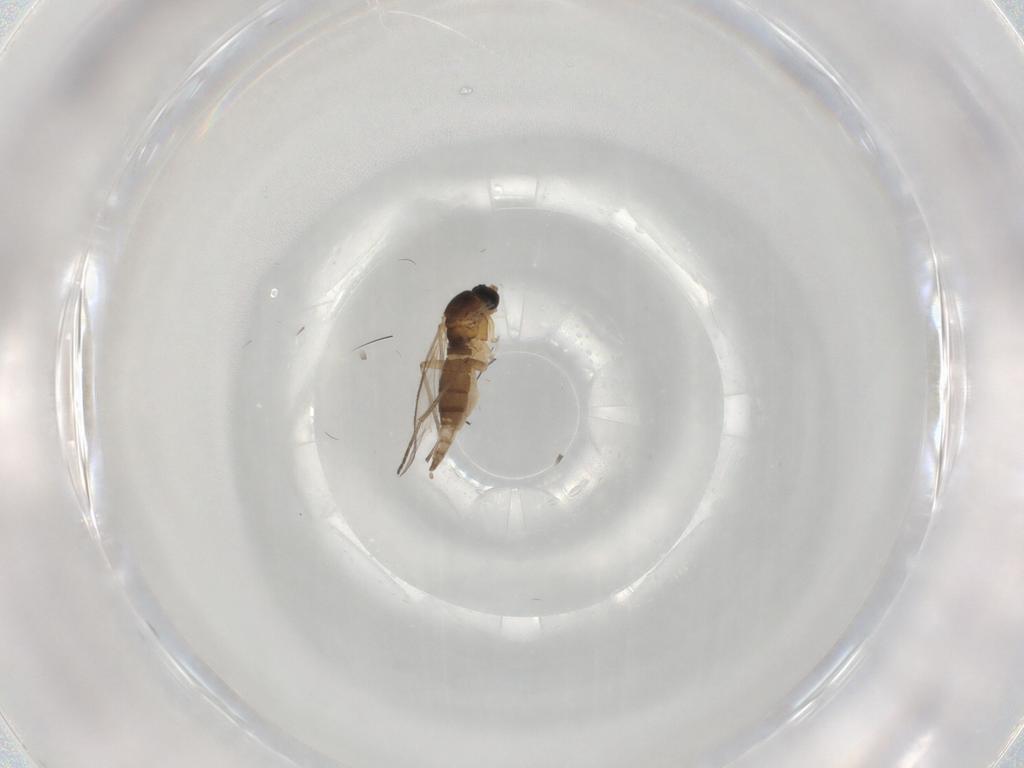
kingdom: Animalia
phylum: Arthropoda
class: Insecta
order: Diptera
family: Sciaridae
